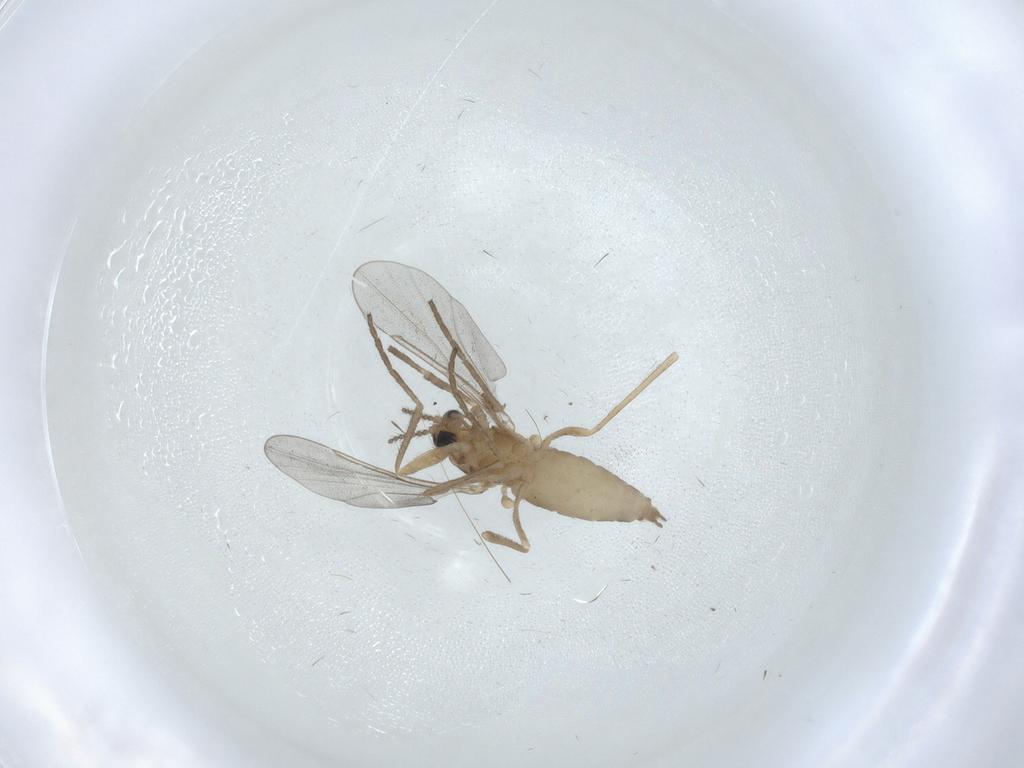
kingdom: Animalia
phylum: Arthropoda
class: Insecta
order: Diptera
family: Cecidomyiidae
